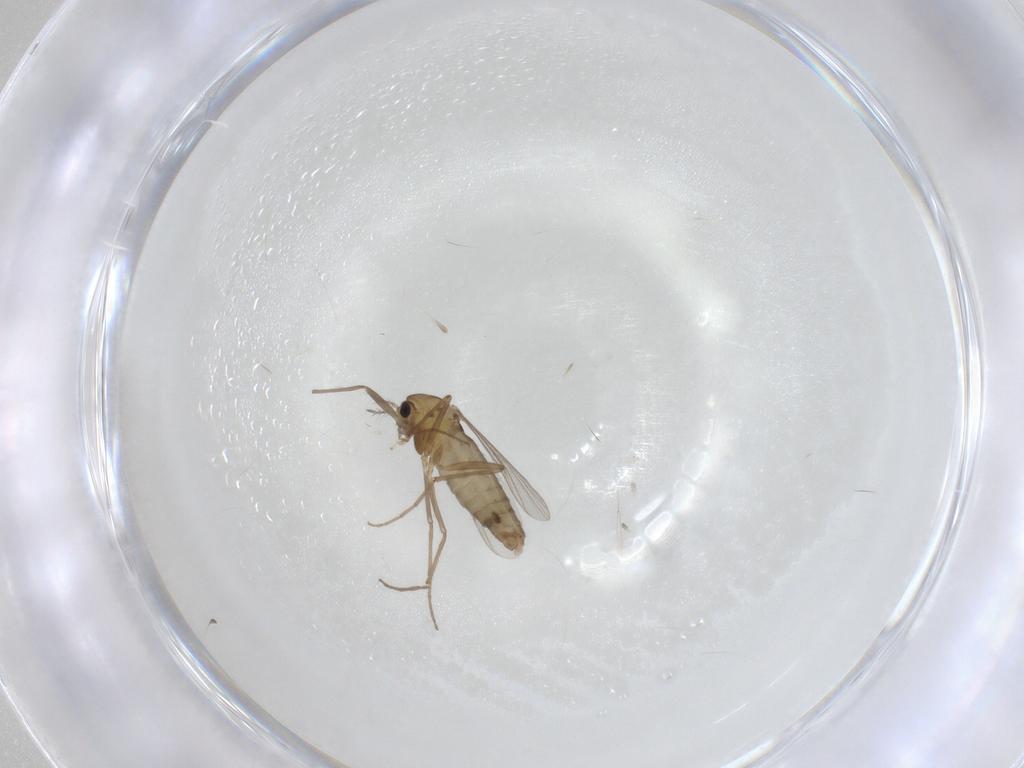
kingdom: Animalia
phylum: Arthropoda
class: Insecta
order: Diptera
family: Chironomidae
